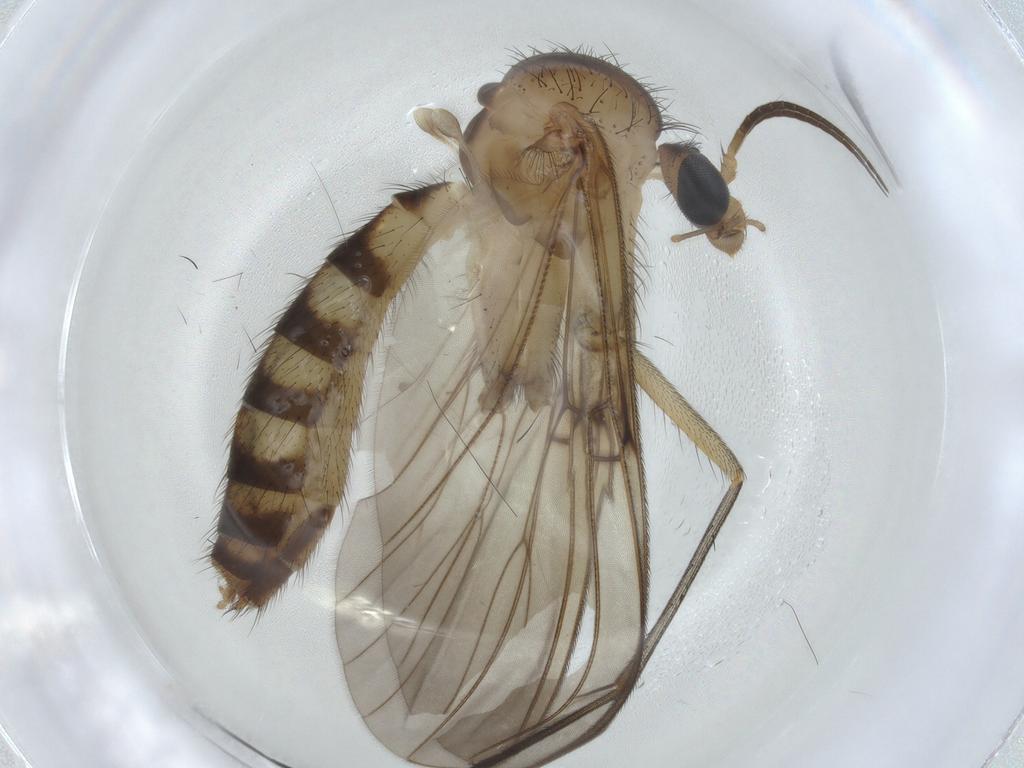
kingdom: Animalia
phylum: Arthropoda
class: Insecta
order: Diptera
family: Mycetophilidae
